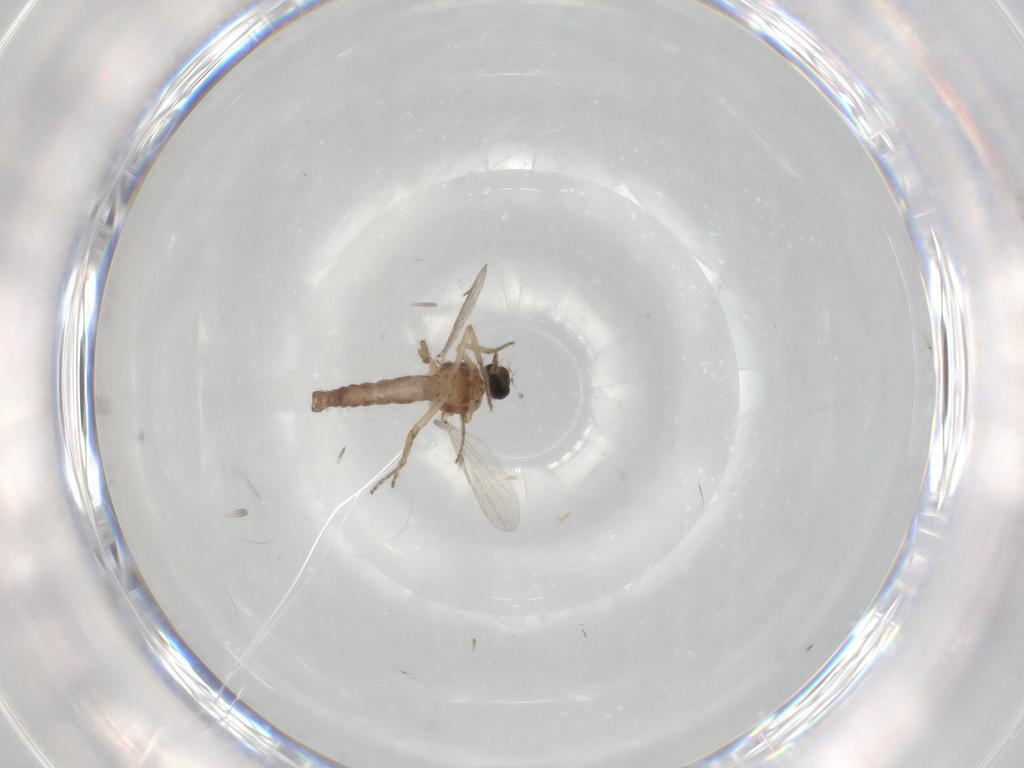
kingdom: Animalia
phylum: Arthropoda
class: Insecta
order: Diptera
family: Ceratopogonidae
